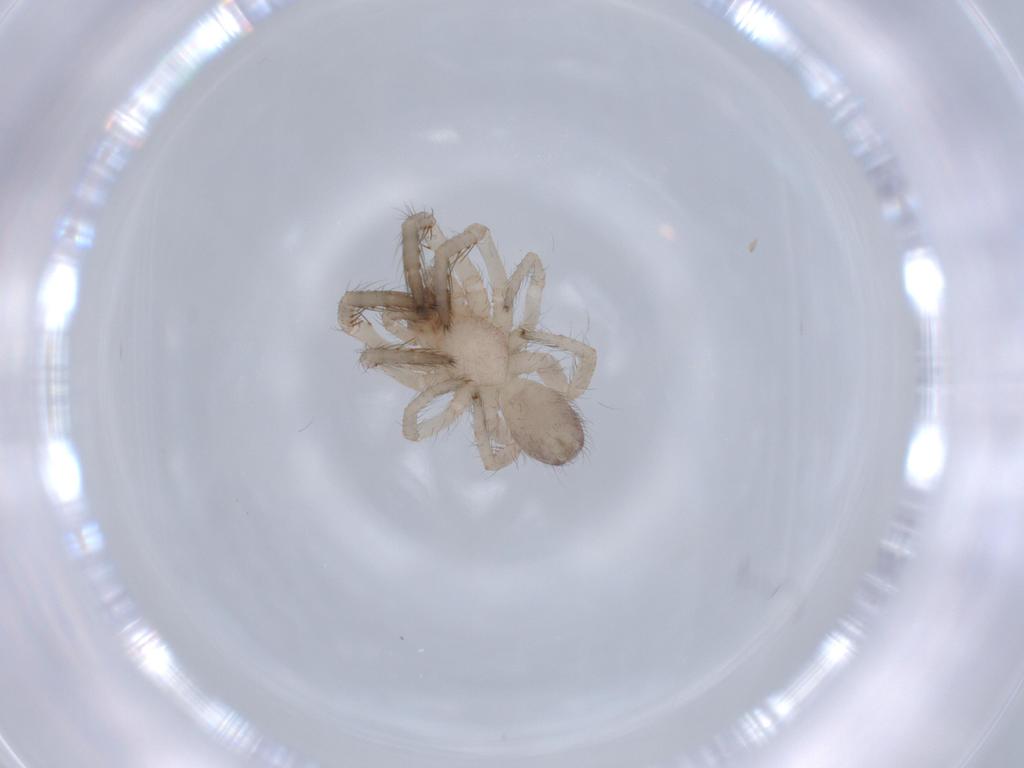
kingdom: Animalia
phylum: Arthropoda
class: Arachnida
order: Araneae
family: Segestriidae
